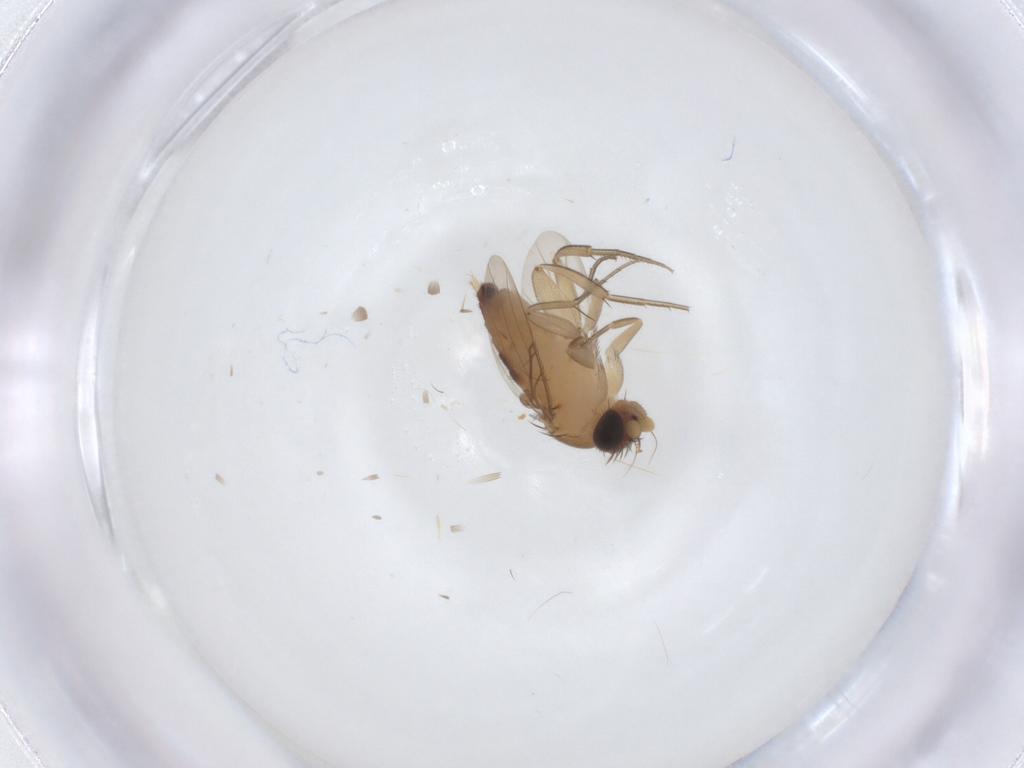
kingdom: Animalia
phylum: Arthropoda
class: Insecta
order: Diptera
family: Phoridae
